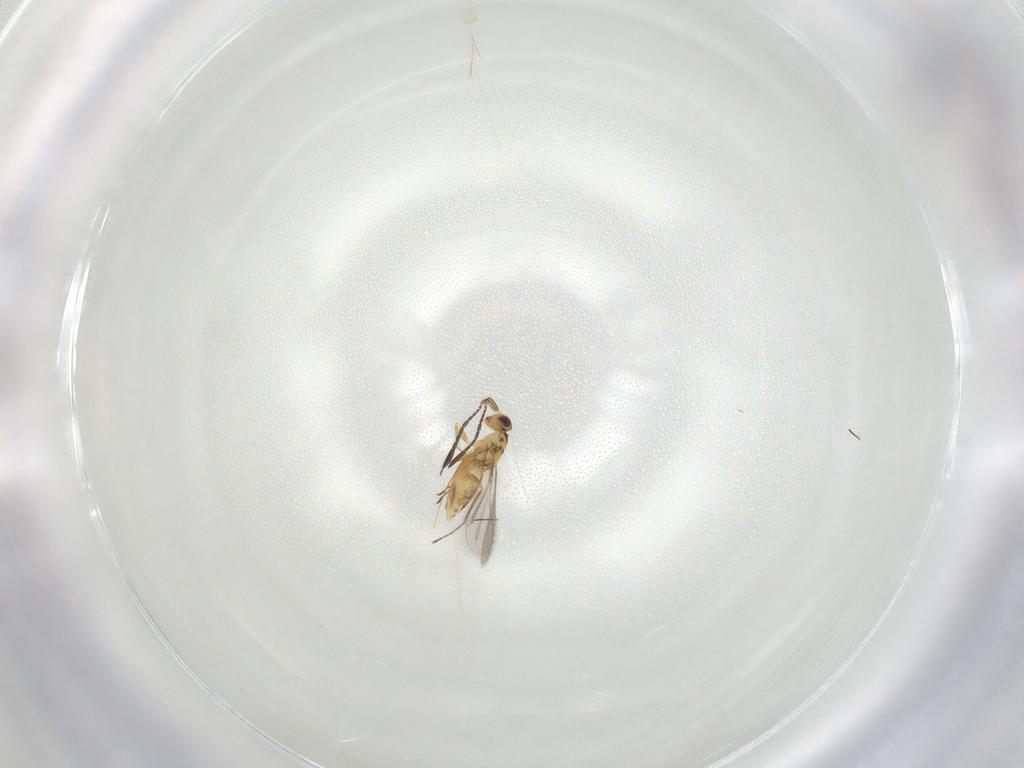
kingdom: Animalia
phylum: Arthropoda
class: Insecta
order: Hymenoptera
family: Mymaridae
